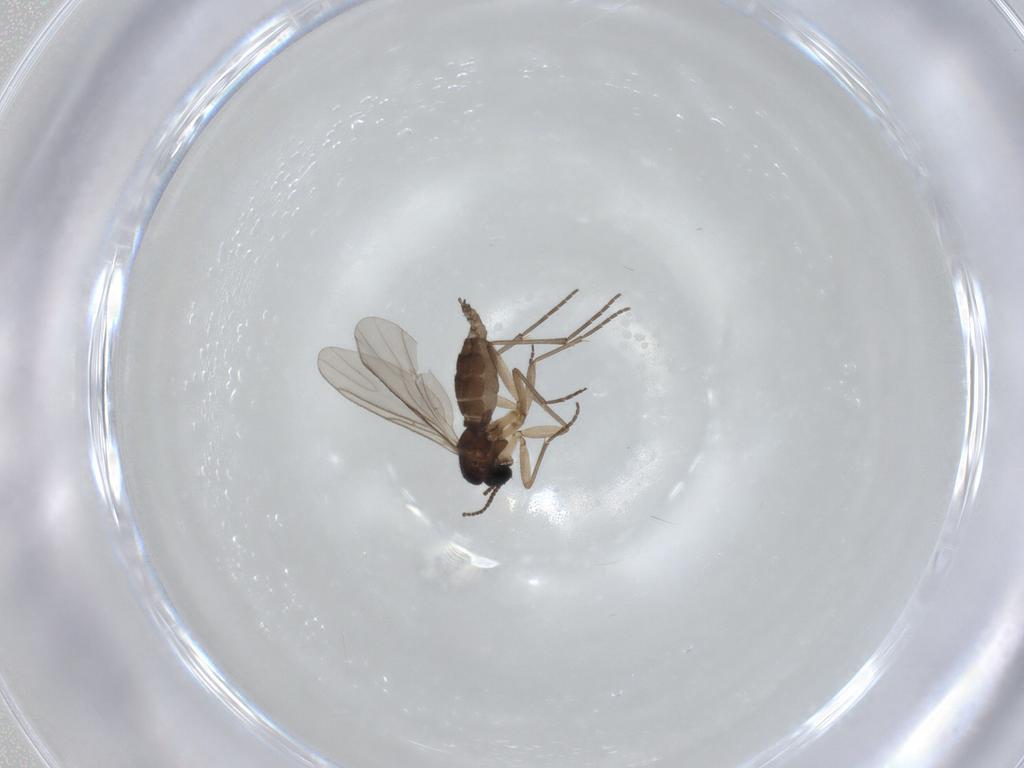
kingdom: Animalia
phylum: Arthropoda
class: Insecta
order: Diptera
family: Sciaridae
